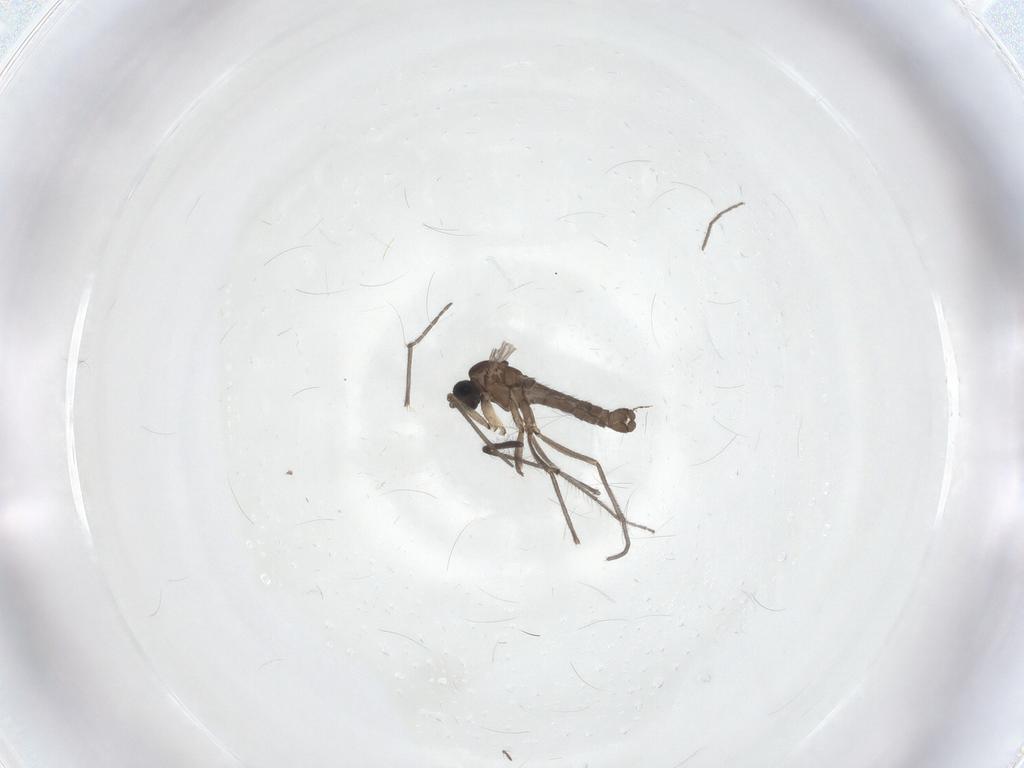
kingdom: Animalia
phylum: Arthropoda
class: Insecta
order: Diptera
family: Sciaridae
